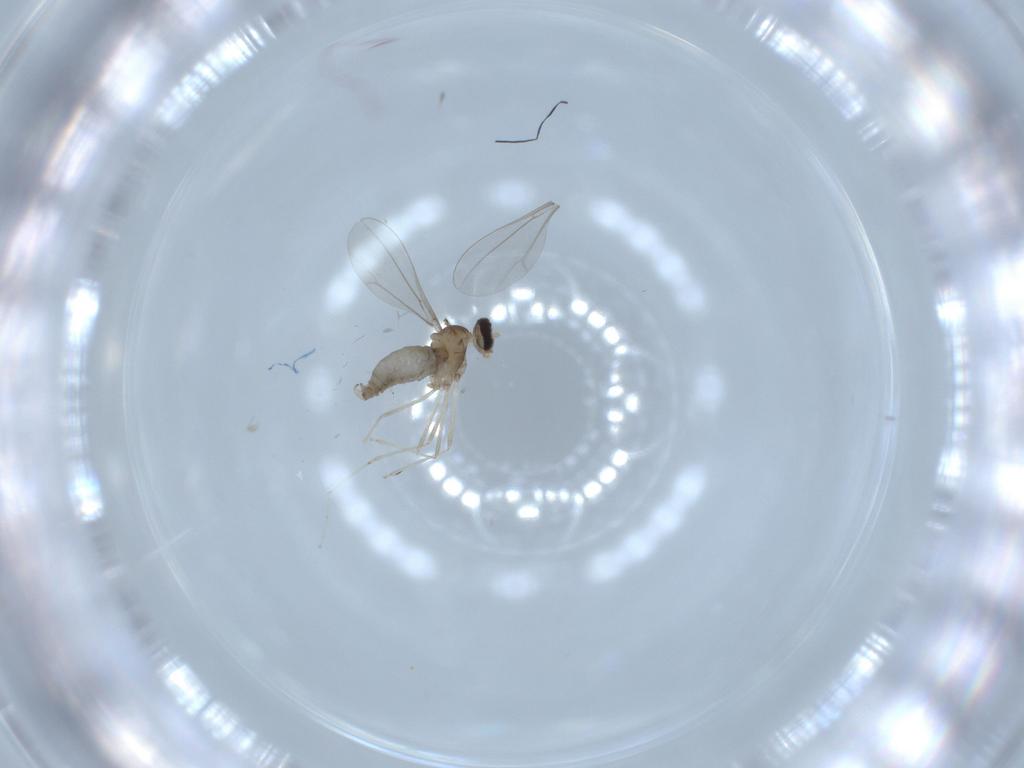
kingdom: Animalia
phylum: Arthropoda
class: Insecta
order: Diptera
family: Cecidomyiidae
